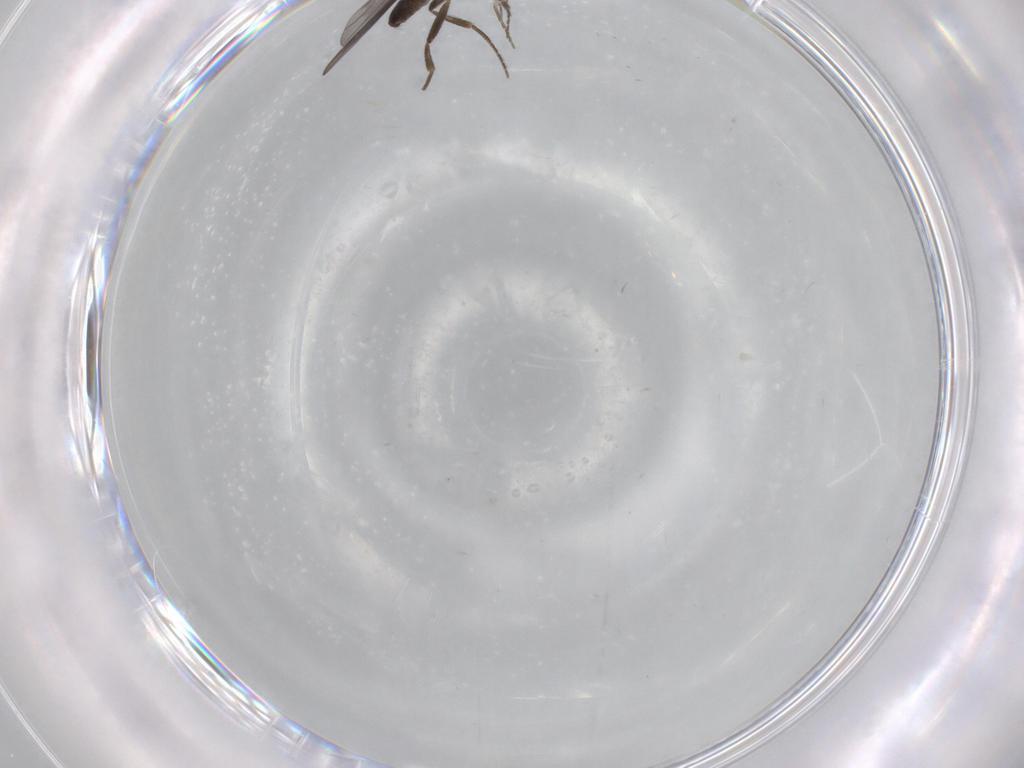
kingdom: Animalia
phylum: Arthropoda
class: Insecta
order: Diptera
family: Phoridae
